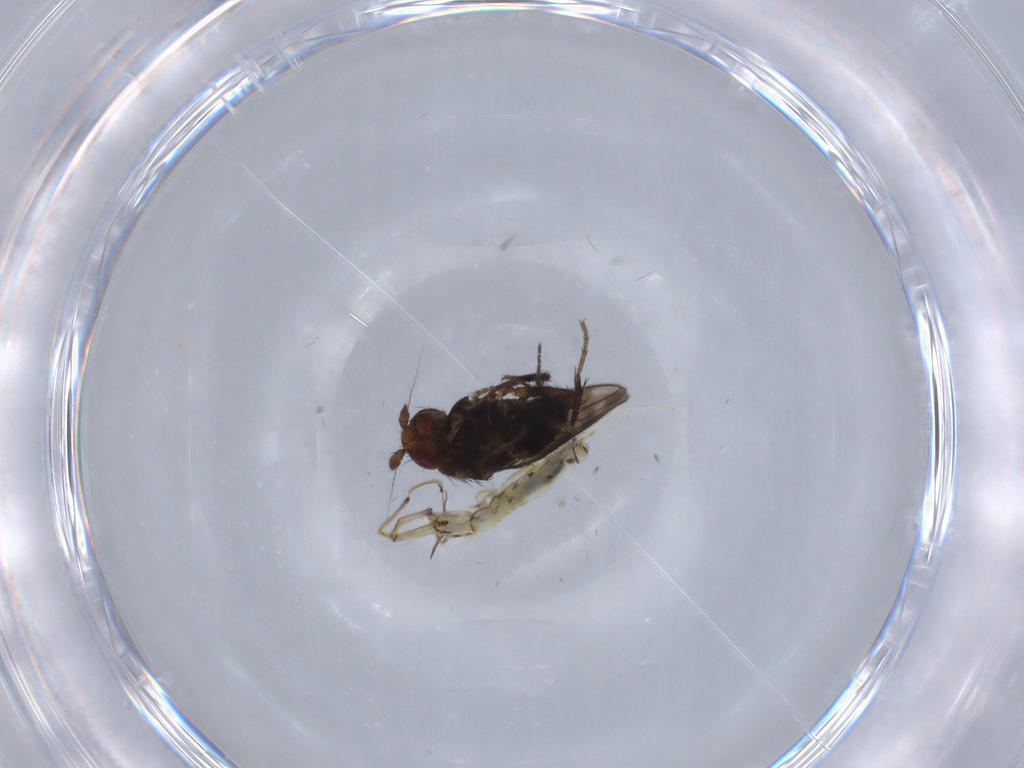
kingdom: Animalia
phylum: Arthropoda
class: Insecta
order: Diptera
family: Sphaeroceridae
